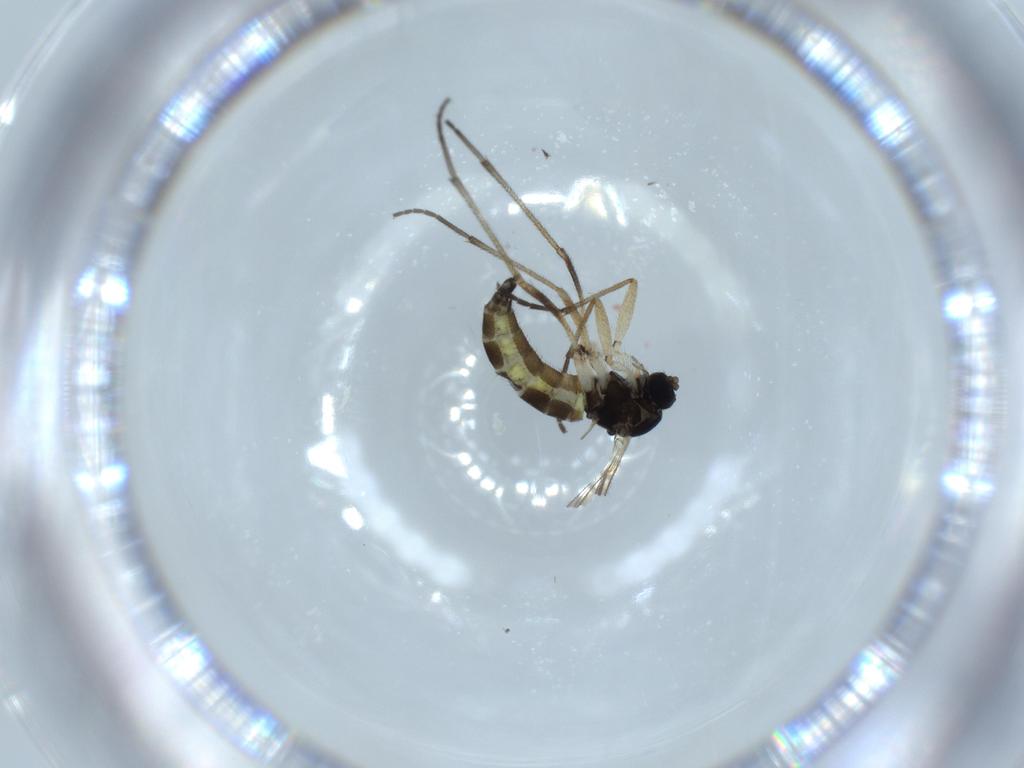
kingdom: Animalia
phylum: Arthropoda
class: Insecta
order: Diptera
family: Sciaridae
